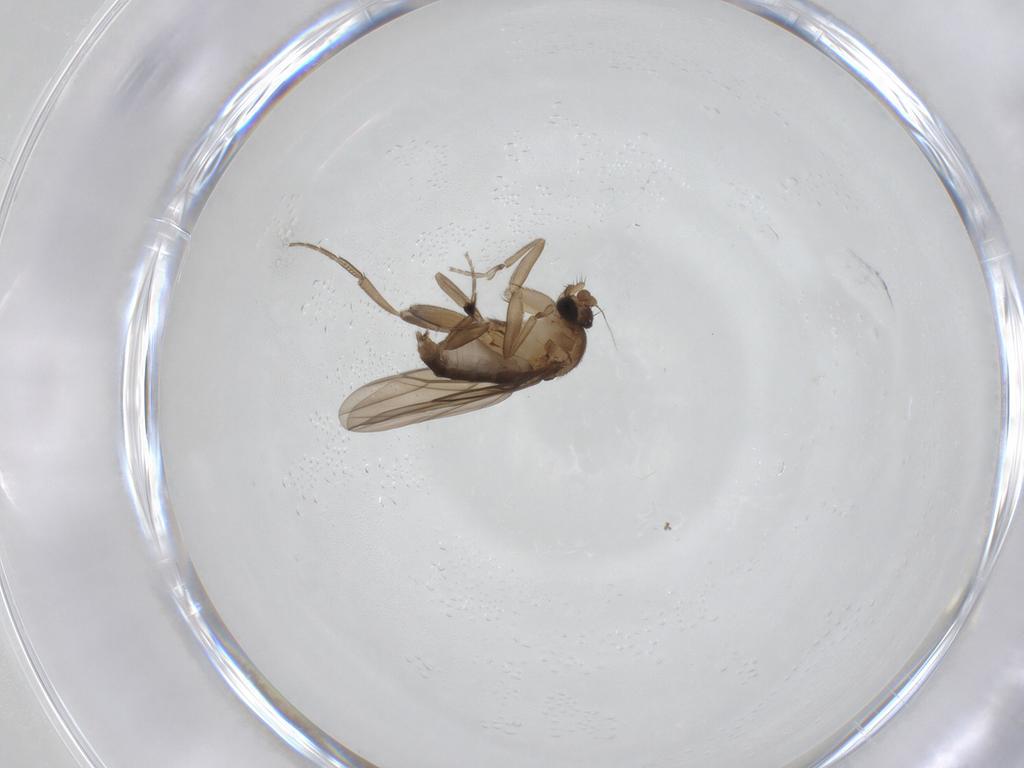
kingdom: Animalia
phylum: Arthropoda
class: Insecta
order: Diptera
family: Phoridae
